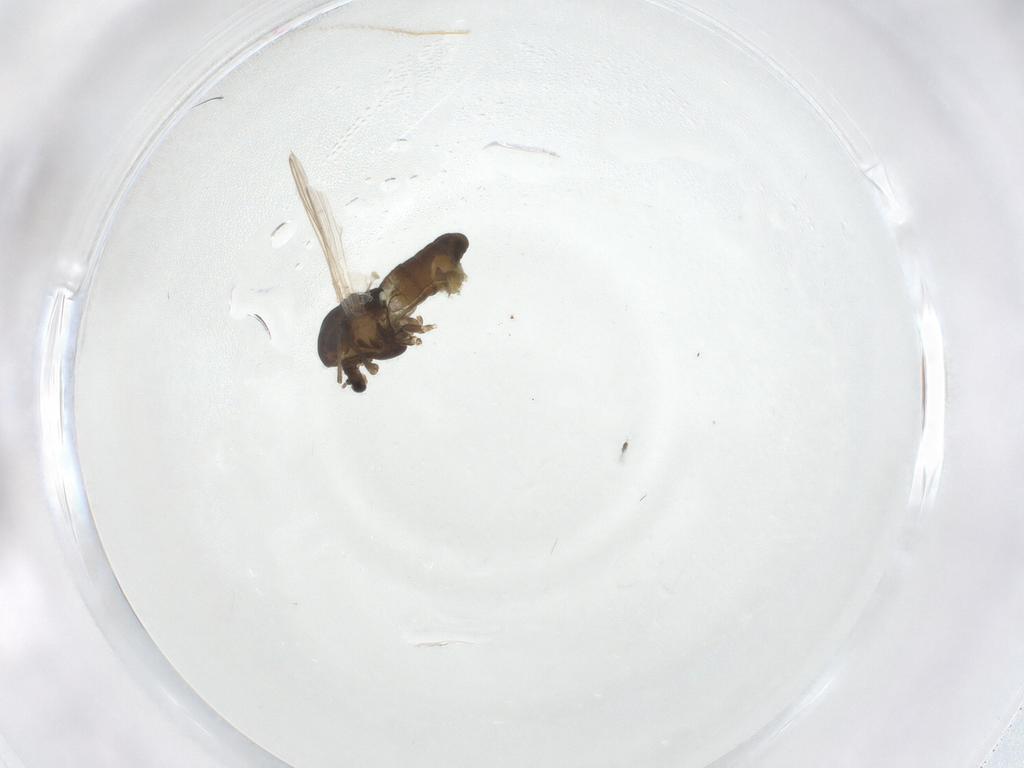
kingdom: Animalia
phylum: Arthropoda
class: Insecta
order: Diptera
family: Chironomidae
